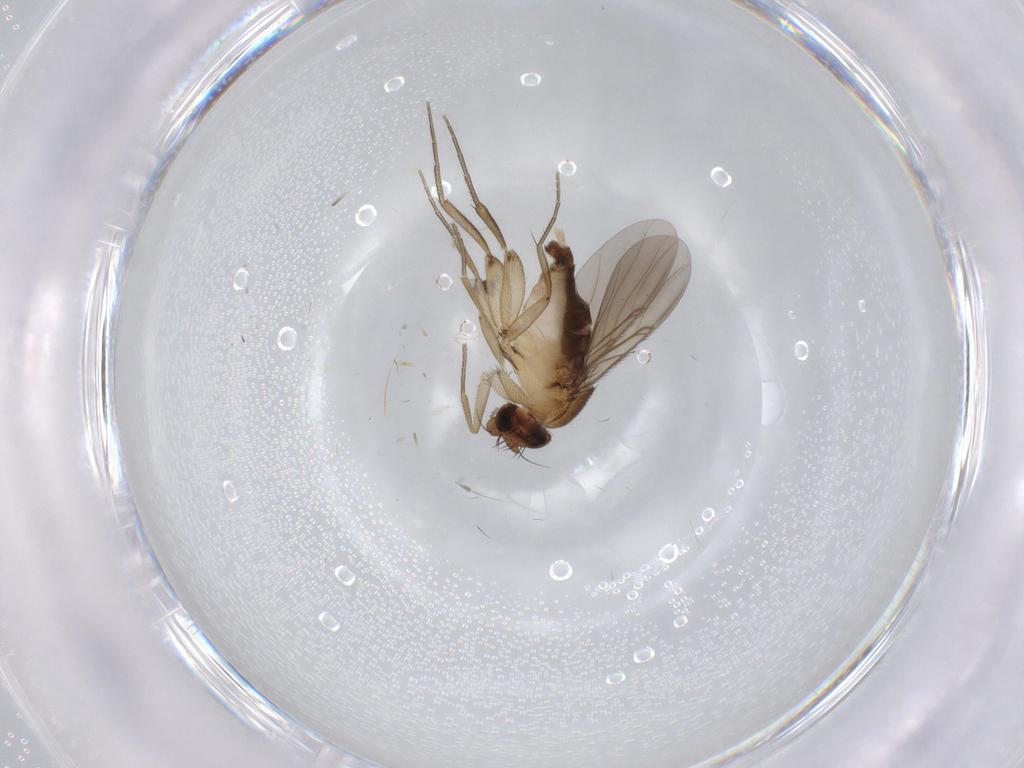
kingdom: Animalia
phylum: Arthropoda
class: Insecta
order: Diptera
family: Phoridae
